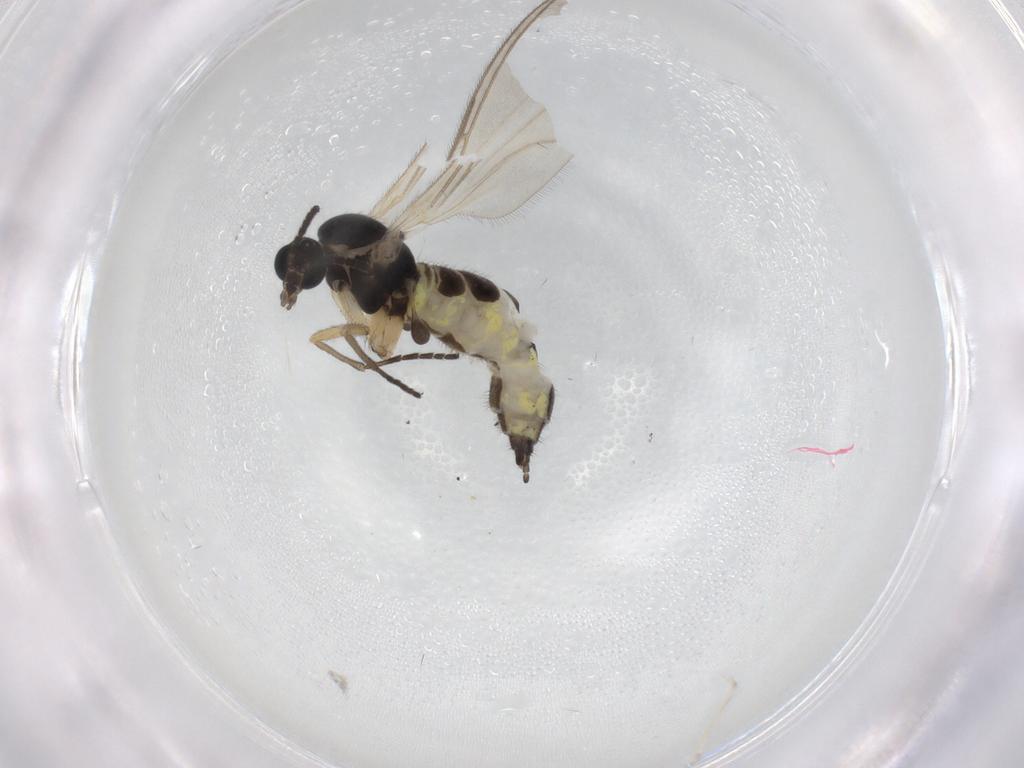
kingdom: Animalia
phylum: Arthropoda
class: Insecta
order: Diptera
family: Sciaridae
